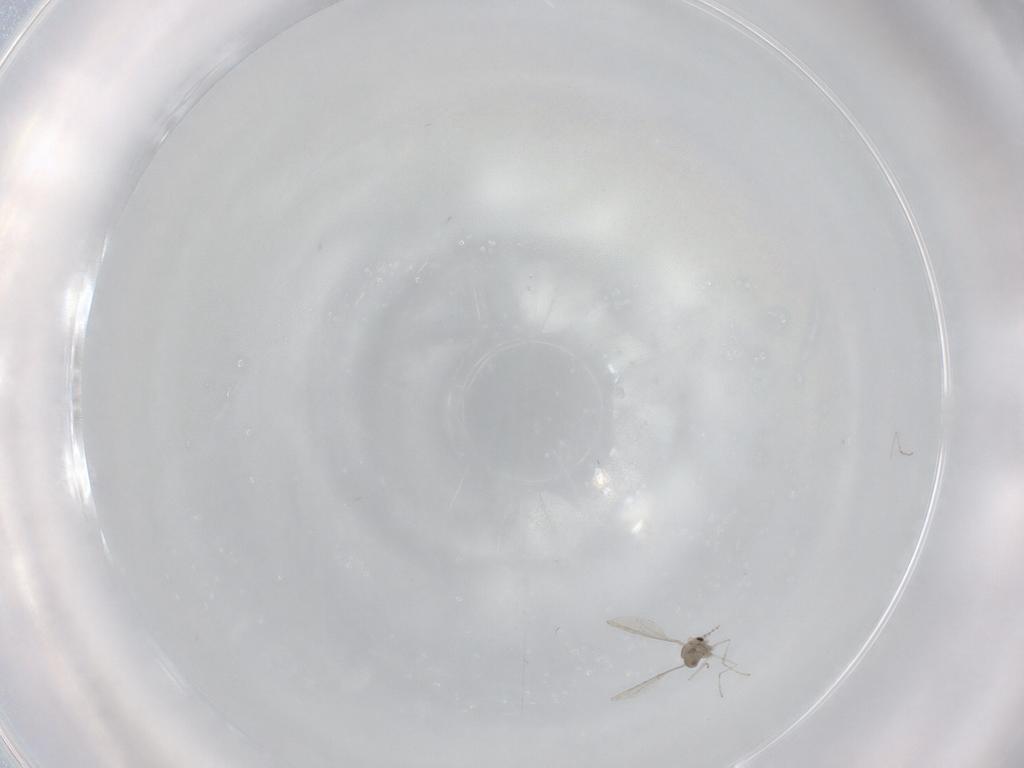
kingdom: Animalia
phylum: Arthropoda
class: Insecta
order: Diptera
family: Cecidomyiidae
